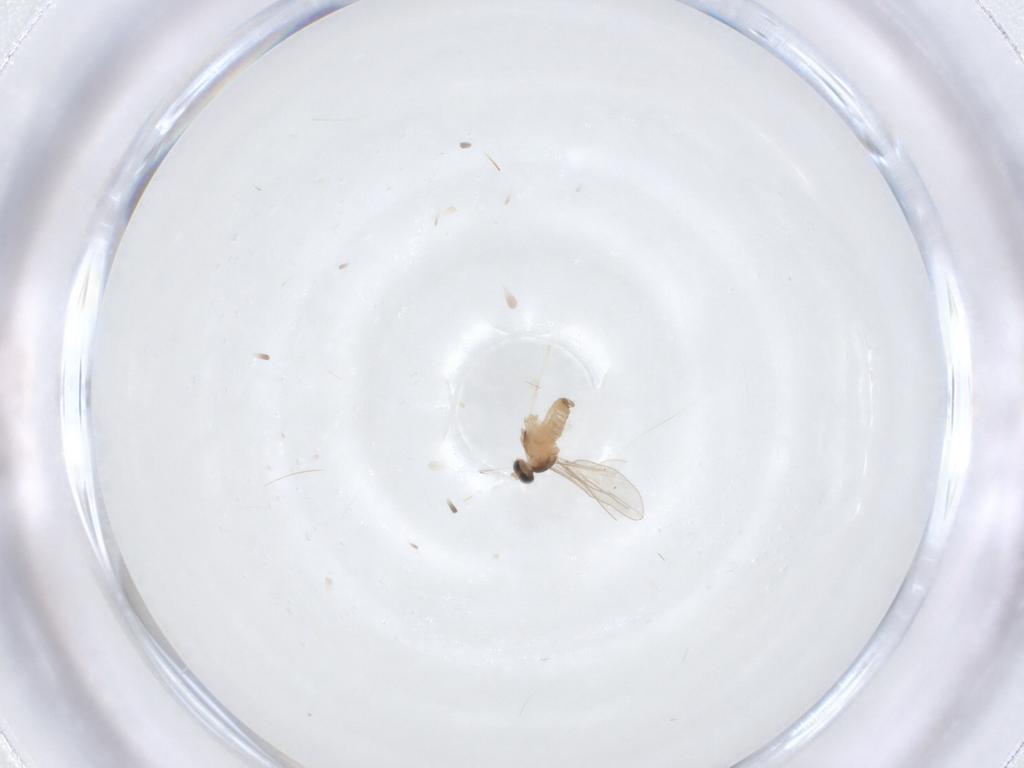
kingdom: Animalia
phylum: Arthropoda
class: Insecta
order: Diptera
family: Cecidomyiidae
